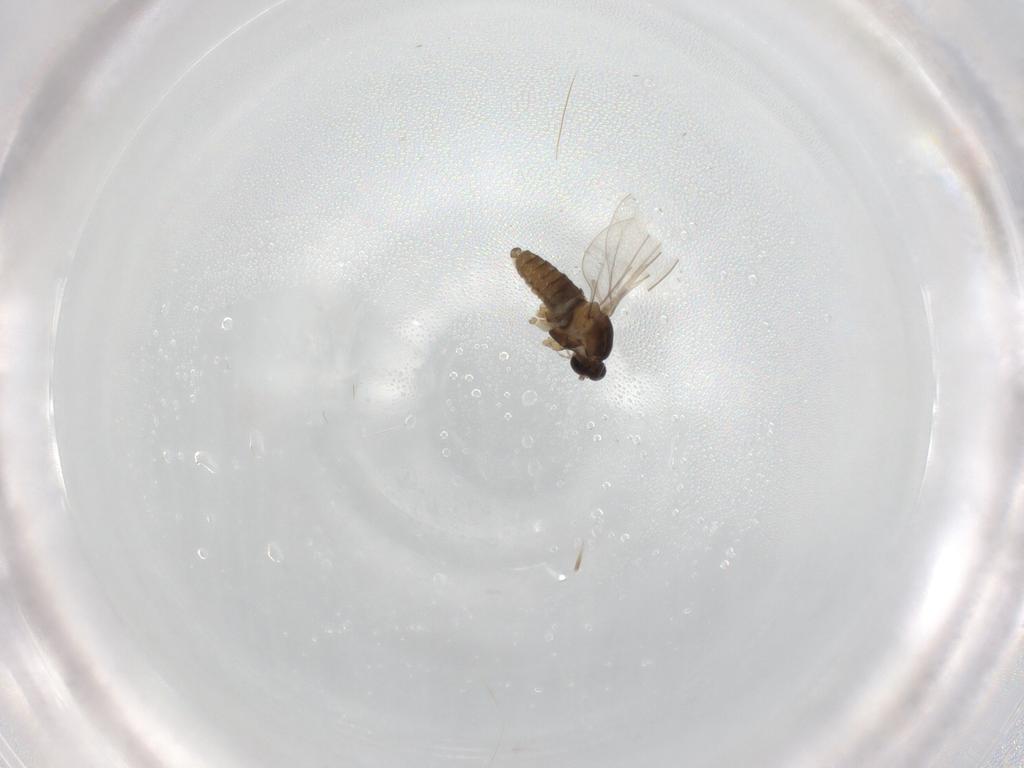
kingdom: Animalia
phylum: Arthropoda
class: Insecta
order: Diptera
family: Cecidomyiidae
